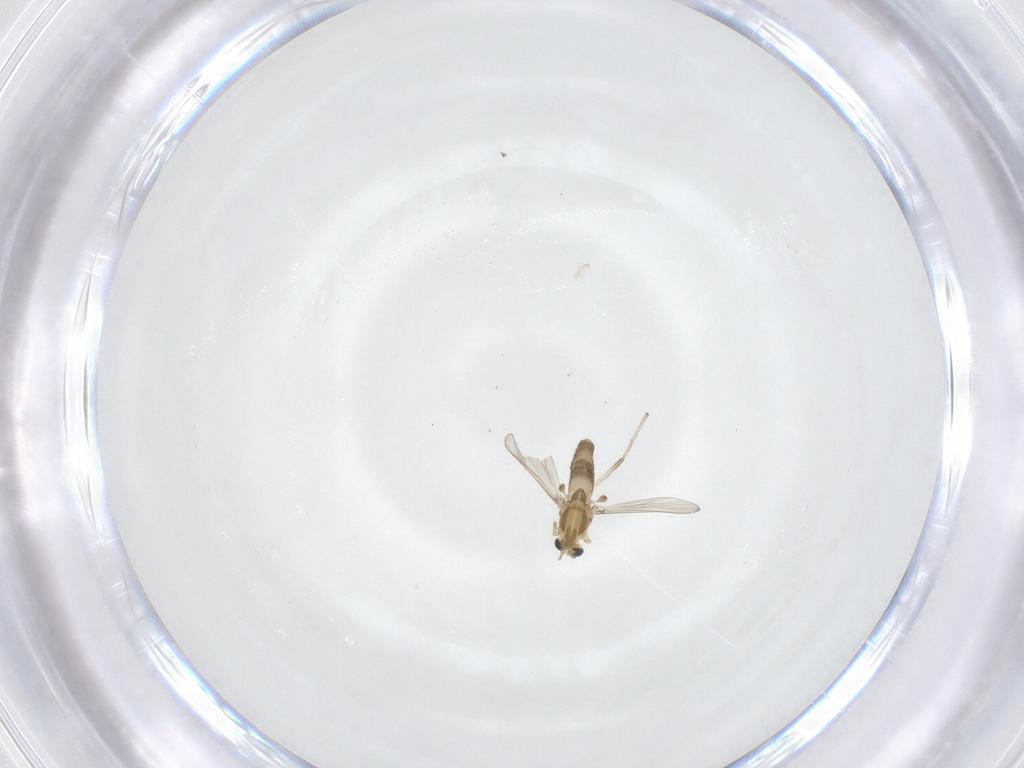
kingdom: Animalia
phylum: Arthropoda
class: Insecta
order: Diptera
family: Chironomidae
